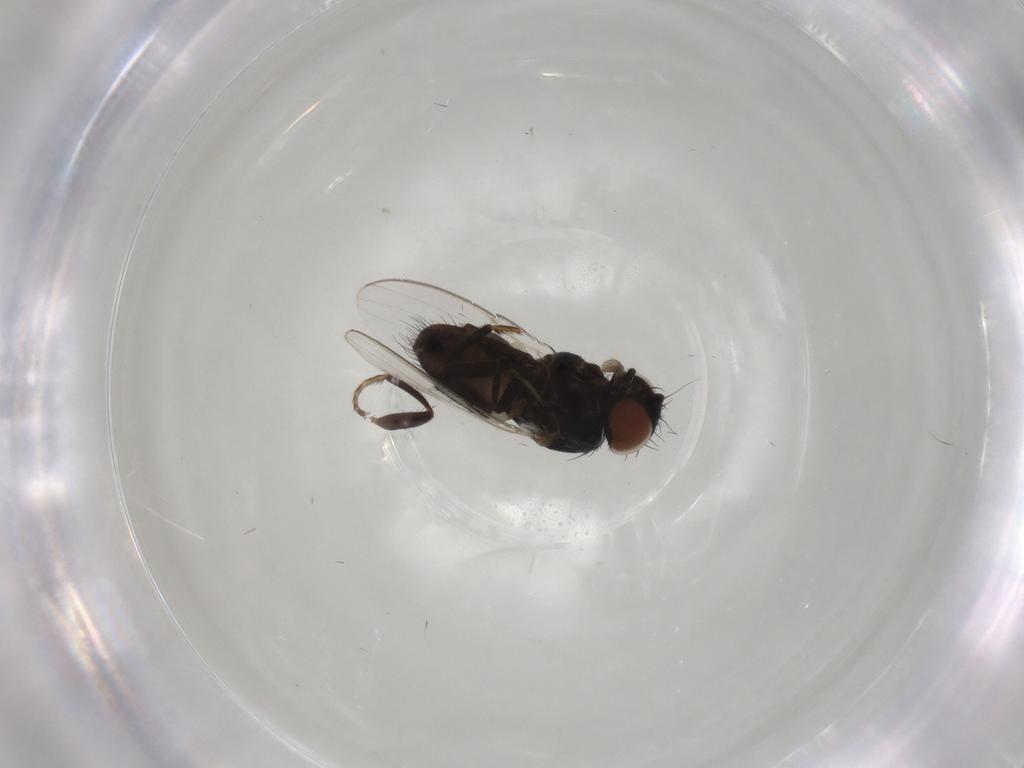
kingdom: Animalia
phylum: Arthropoda
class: Insecta
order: Diptera
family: Milichiidae
